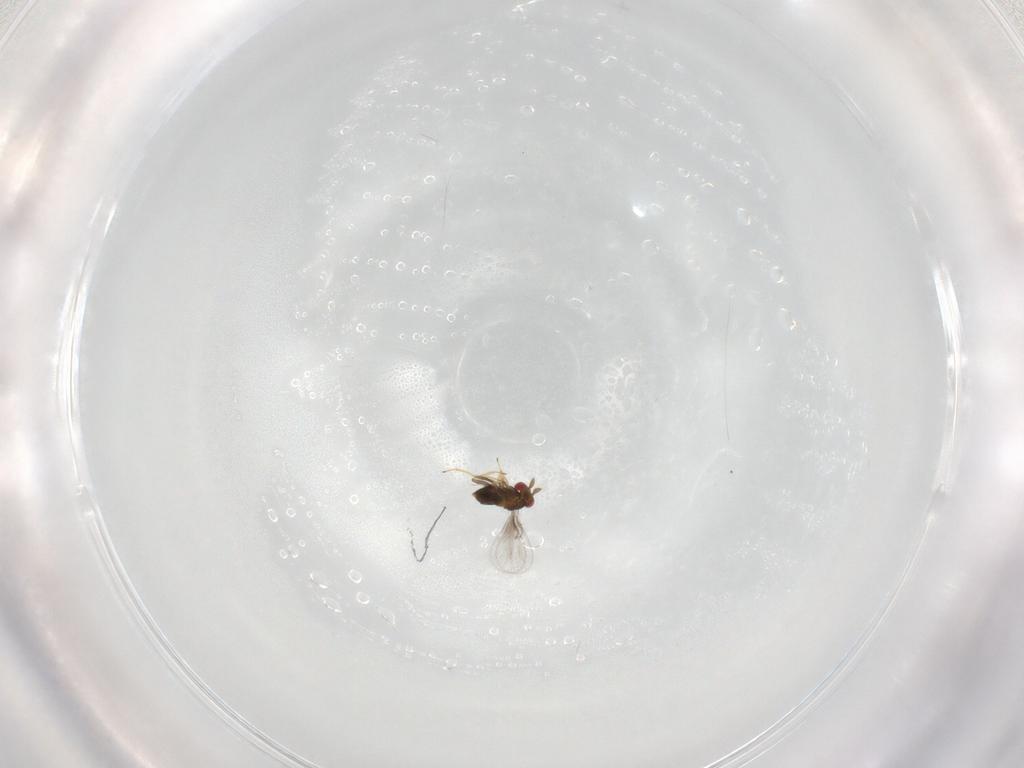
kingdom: Animalia
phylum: Arthropoda
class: Insecta
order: Hymenoptera
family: Trichogrammatidae
